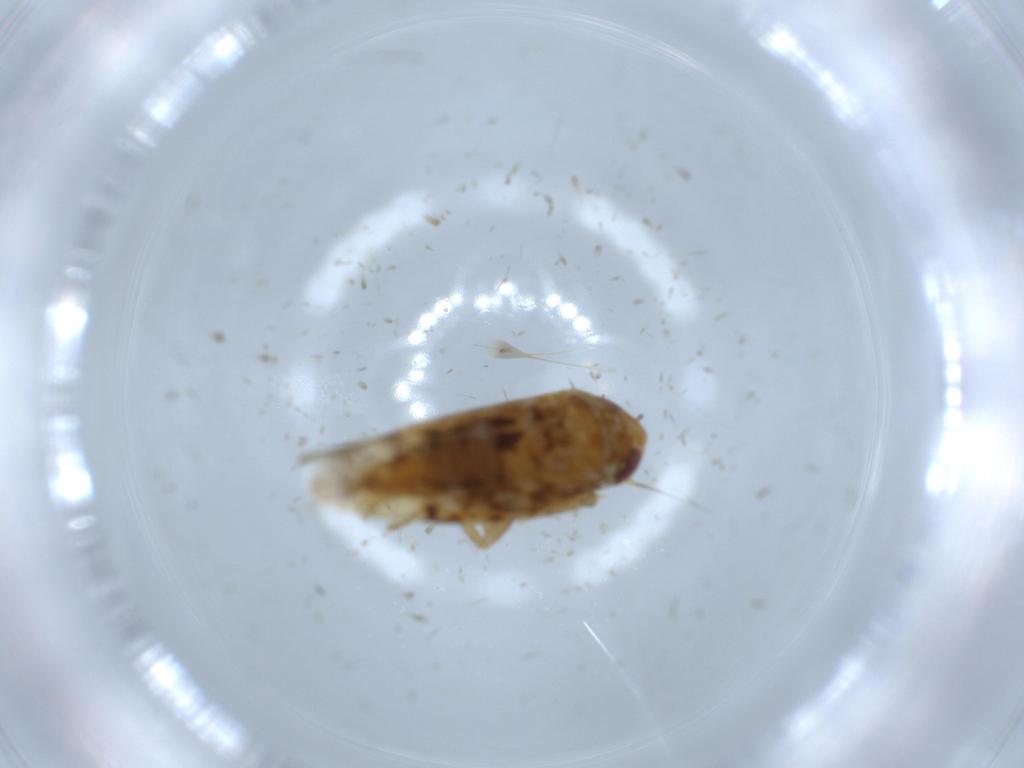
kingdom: Animalia
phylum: Arthropoda
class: Insecta
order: Hemiptera
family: Cicadellidae
